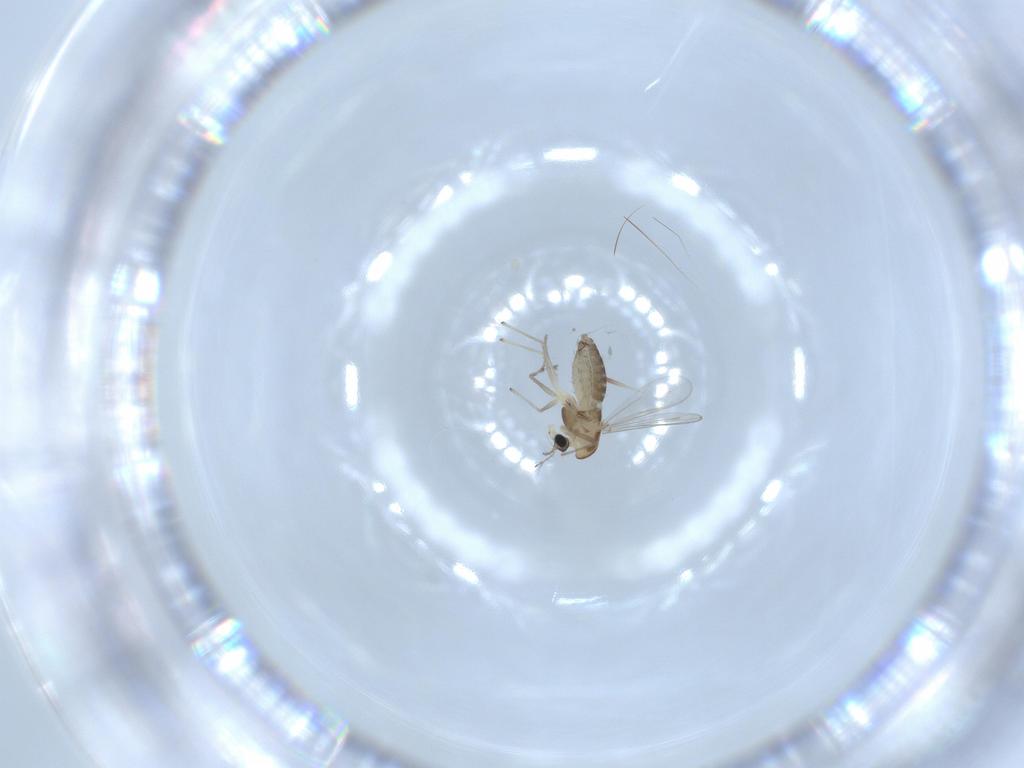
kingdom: Animalia
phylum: Arthropoda
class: Insecta
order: Diptera
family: Chironomidae
